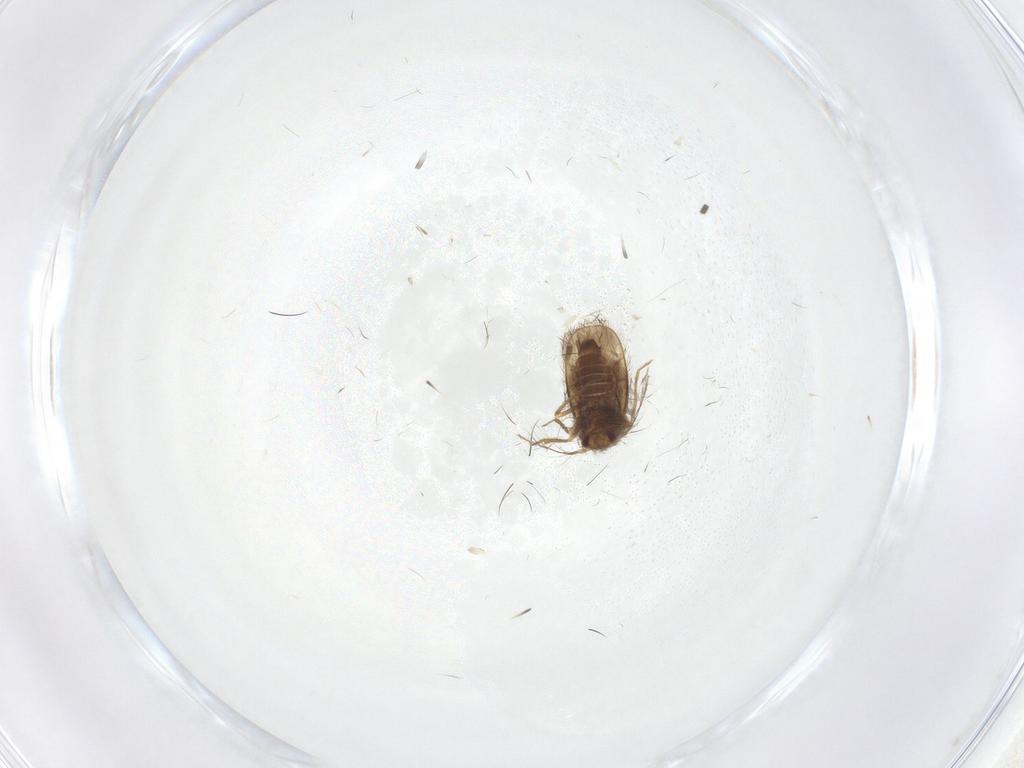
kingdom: Animalia
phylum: Arthropoda
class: Insecta
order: Hemiptera
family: Schizopteridae
